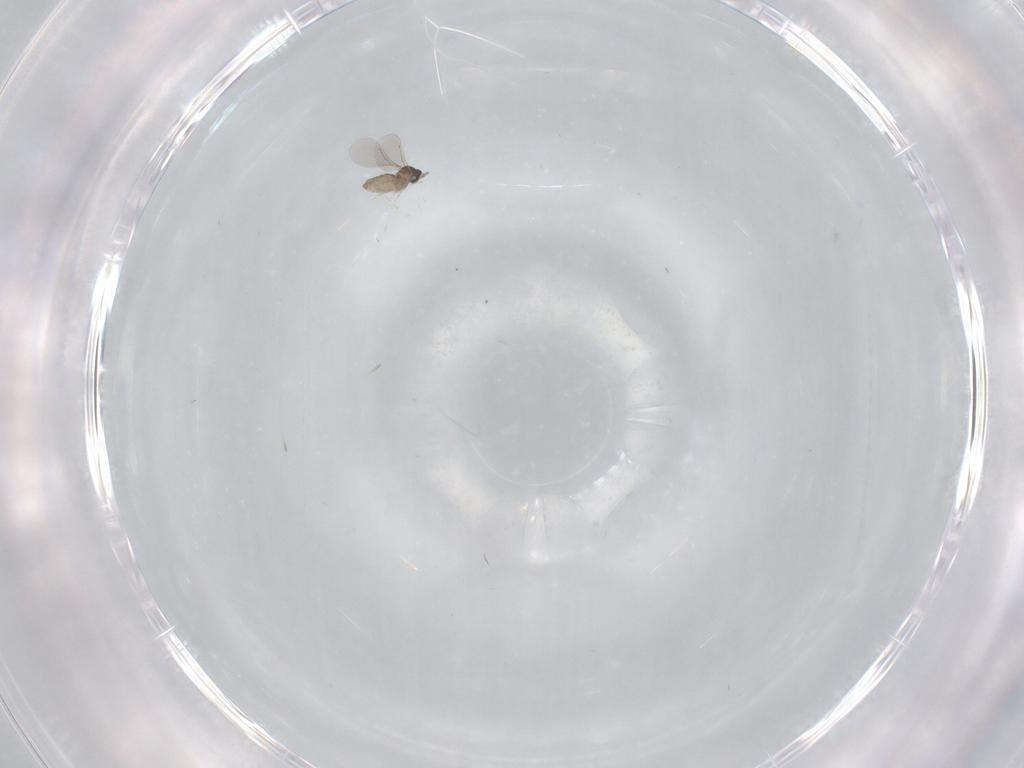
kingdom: Animalia
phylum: Arthropoda
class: Insecta
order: Diptera
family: Cecidomyiidae
